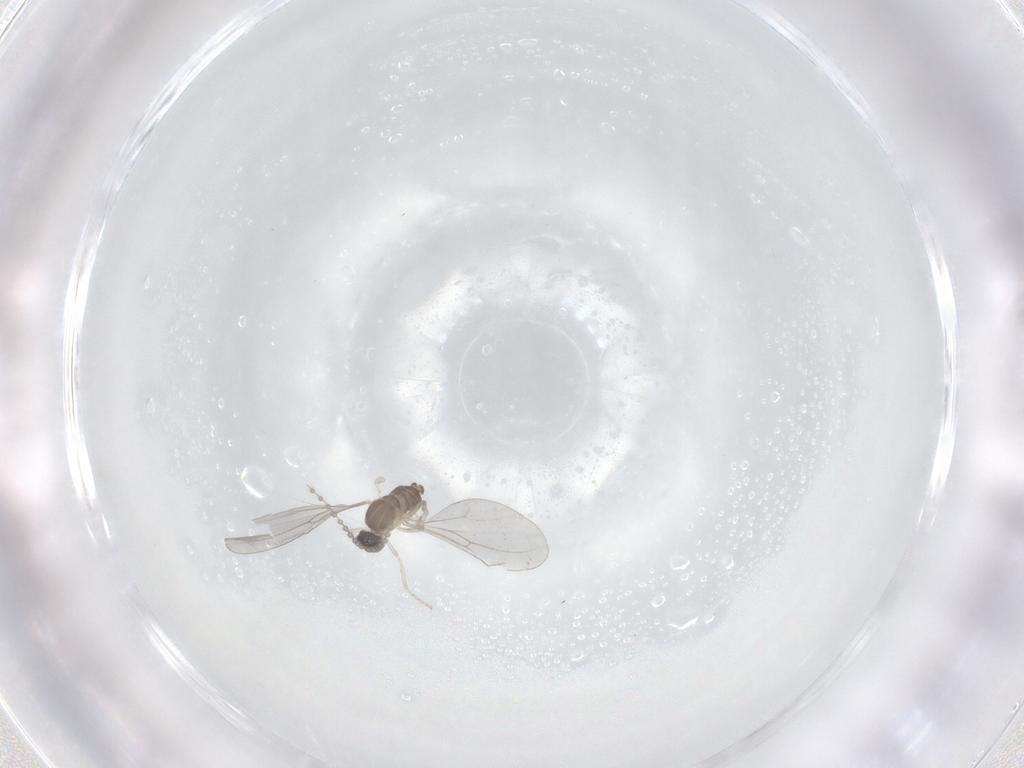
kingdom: Animalia
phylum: Arthropoda
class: Insecta
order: Diptera
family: Cecidomyiidae
